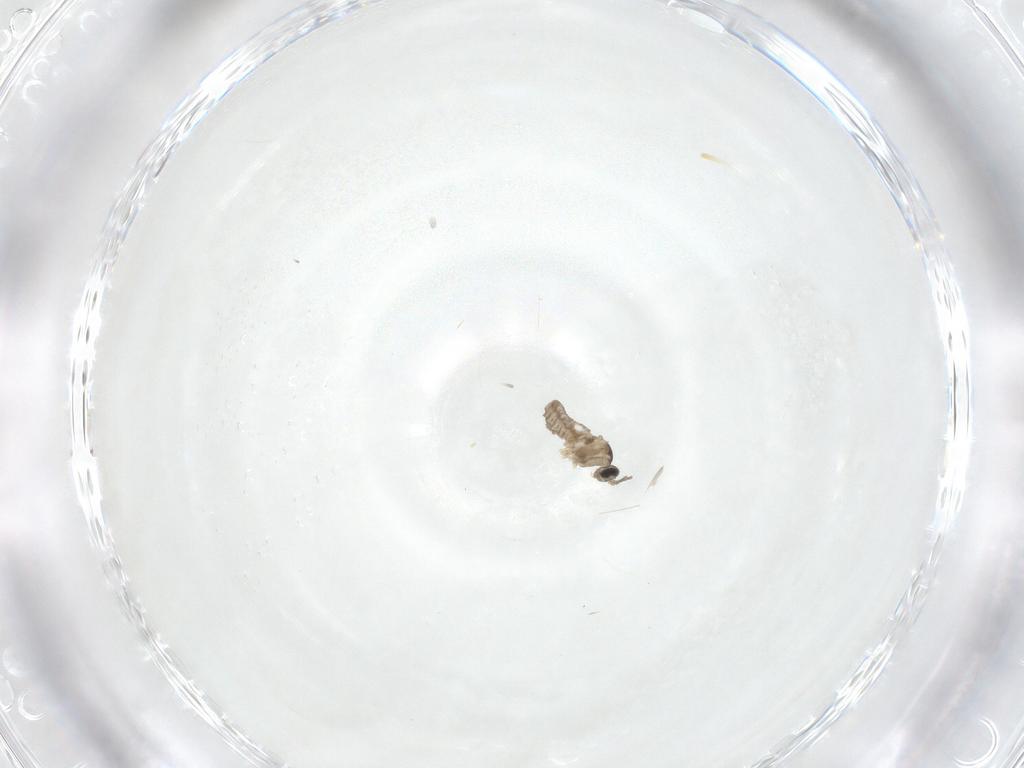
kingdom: Animalia
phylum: Arthropoda
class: Insecta
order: Diptera
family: Cecidomyiidae
